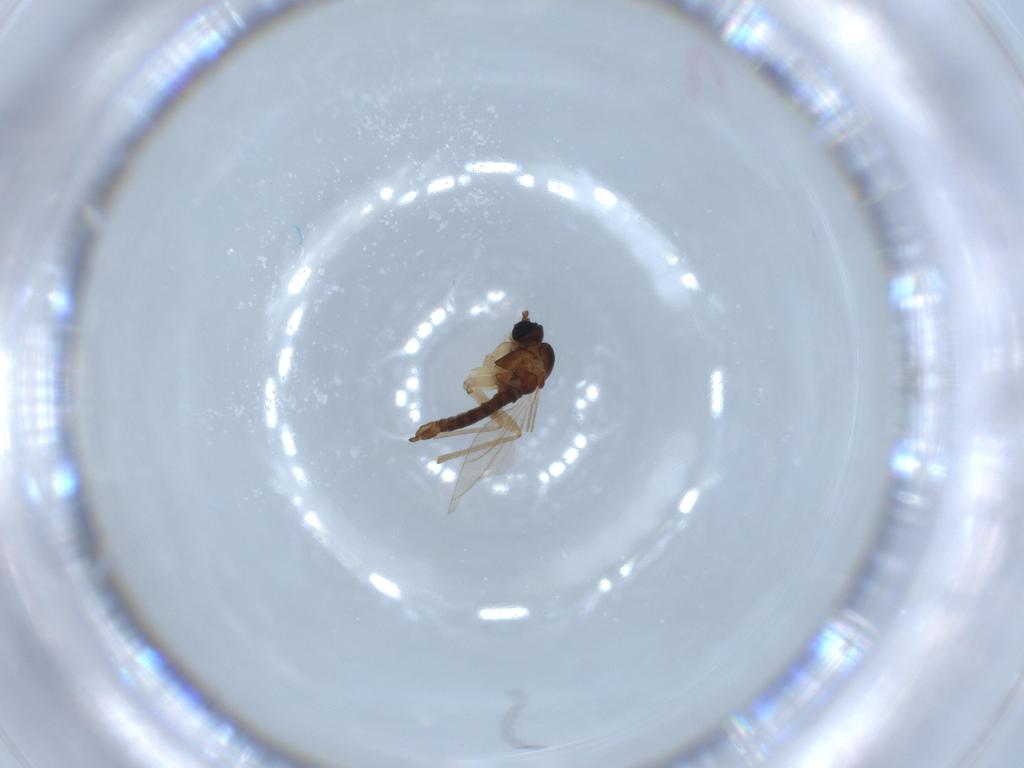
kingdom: Animalia
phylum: Arthropoda
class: Insecta
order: Diptera
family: Sciaridae
